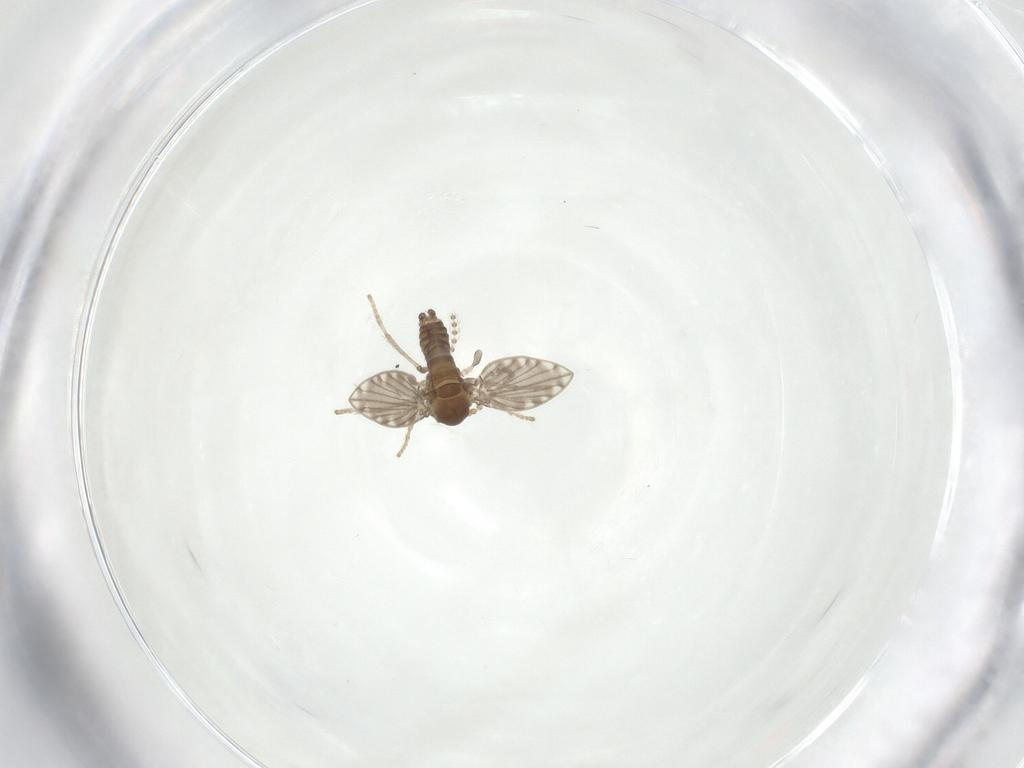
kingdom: Animalia
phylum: Arthropoda
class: Insecta
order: Diptera
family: Psychodidae
